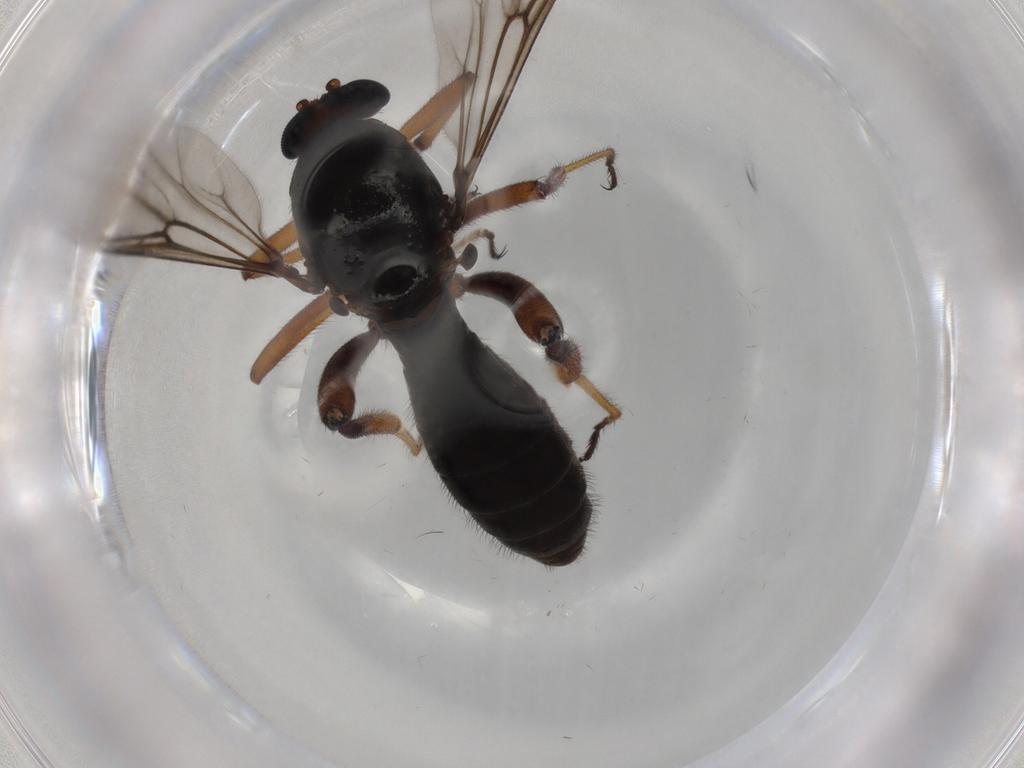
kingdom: Animalia
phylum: Arthropoda
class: Insecta
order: Diptera
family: Ceratopogonidae
